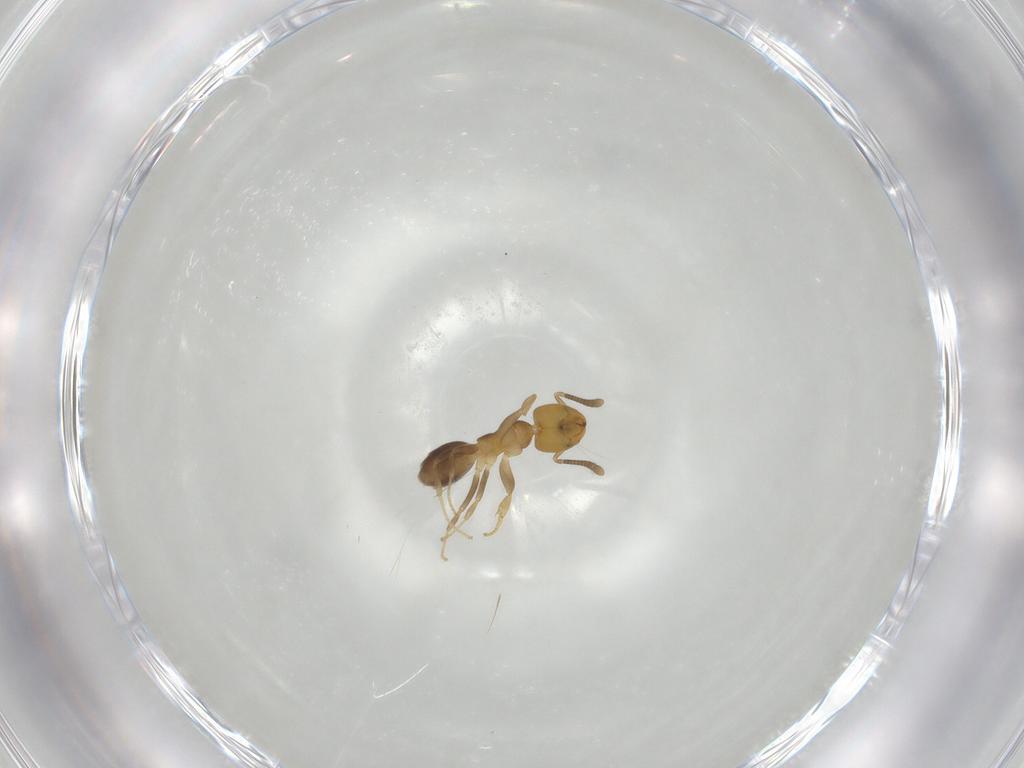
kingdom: Animalia
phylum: Arthropoda
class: Insecta
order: Hymenoptera
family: Formicidae
